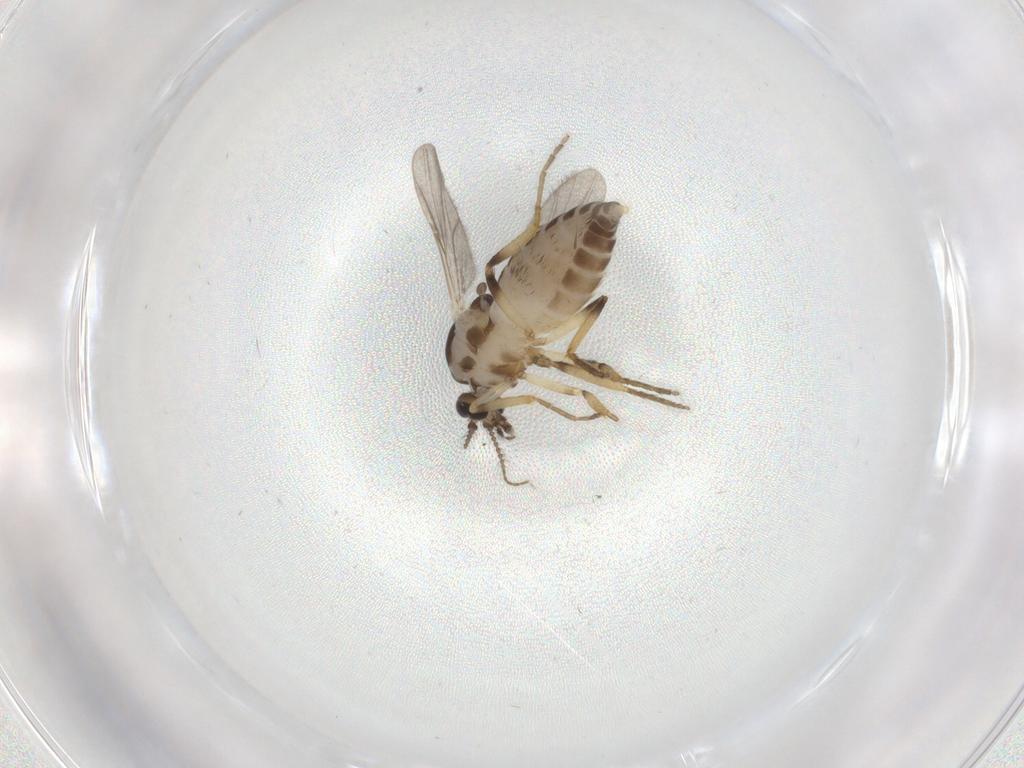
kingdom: Animalia
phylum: Arthropoda
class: Insecta
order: Diptera
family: Ceratopogonidae
